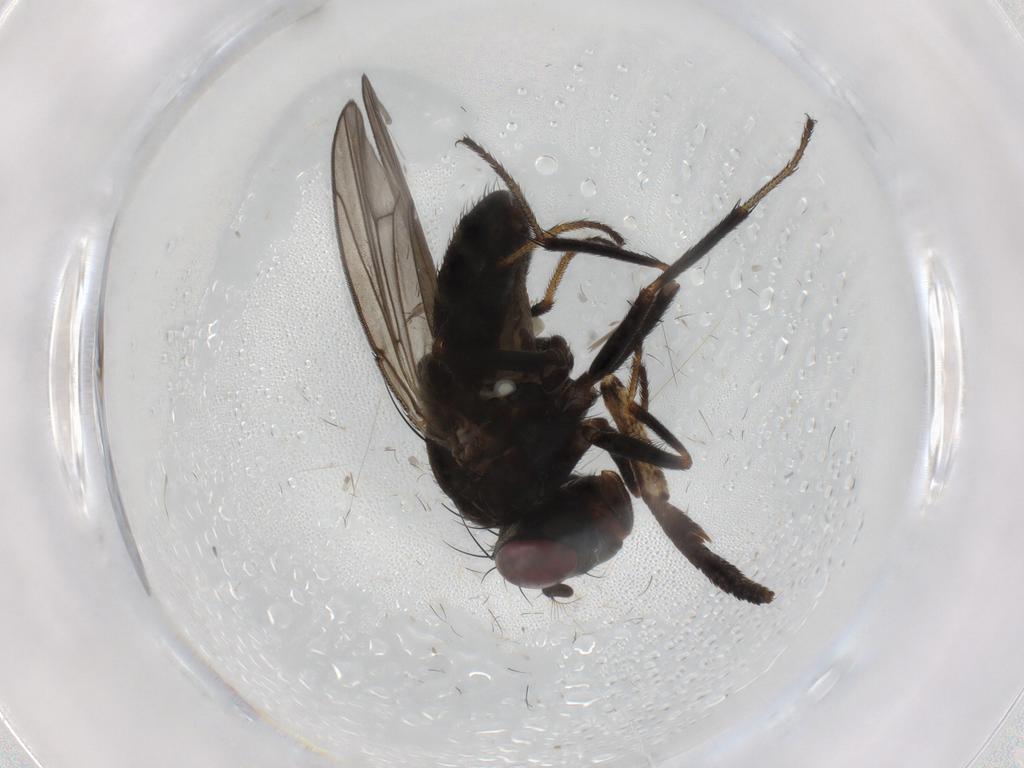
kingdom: Animalia
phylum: Arthropoda
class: Insecta
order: Diptera
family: Ephydridae
